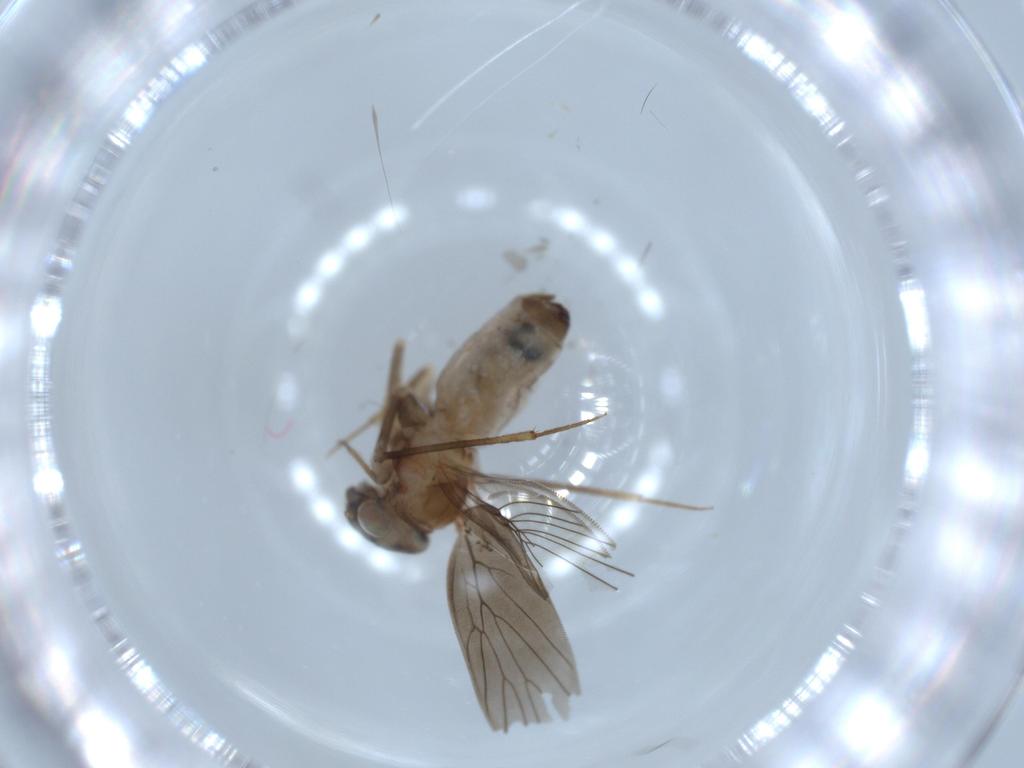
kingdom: Animalia
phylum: Arthropoda
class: Insecta
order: Psocodea
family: Lepidopsocidae
